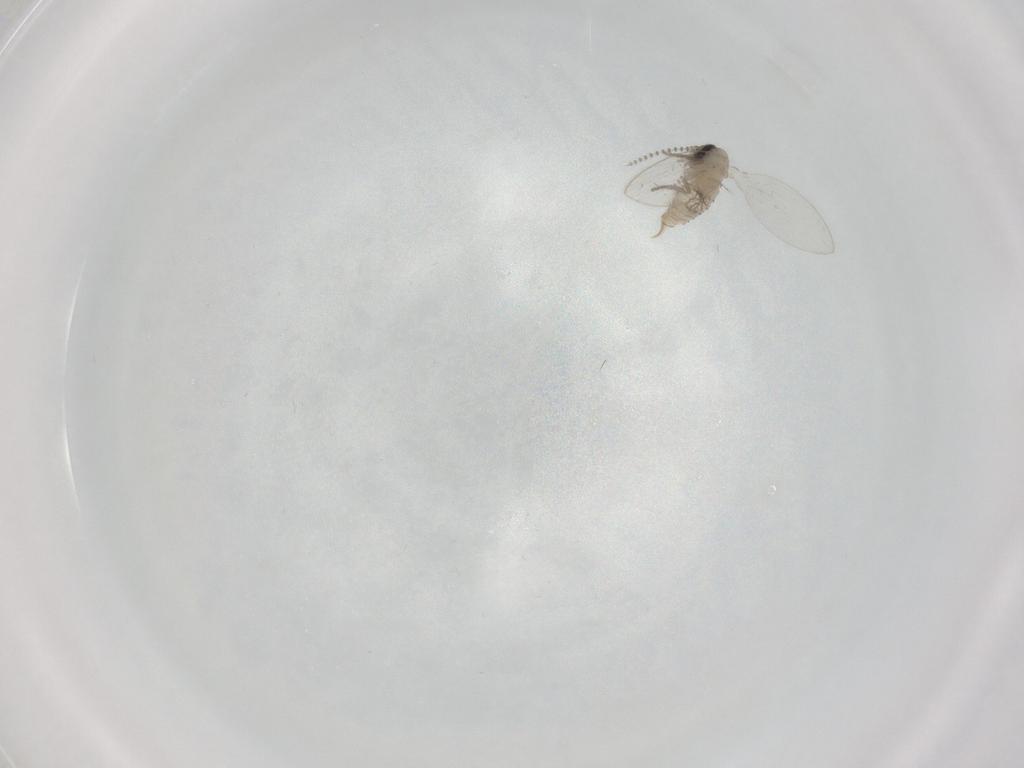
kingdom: Animalia
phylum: Arthropoda
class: Insecta
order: Diptera
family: Psychodidae
